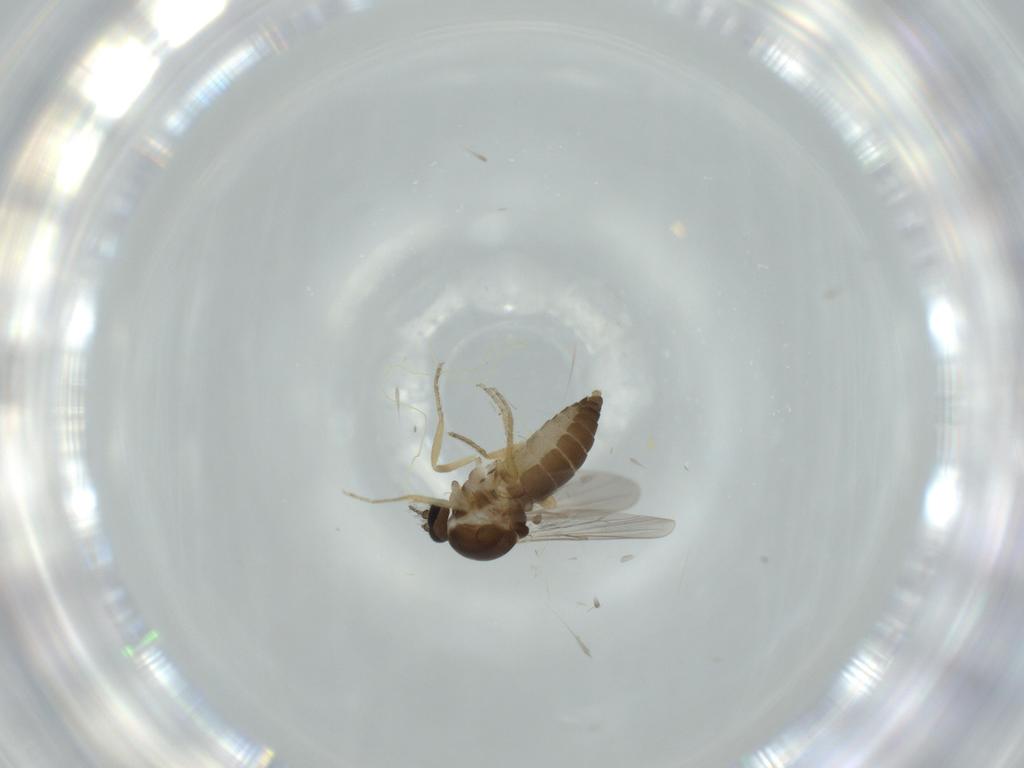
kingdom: Animalia
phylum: Arthropoda
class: Insecta
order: Diptera
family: Ceratopogonidae
